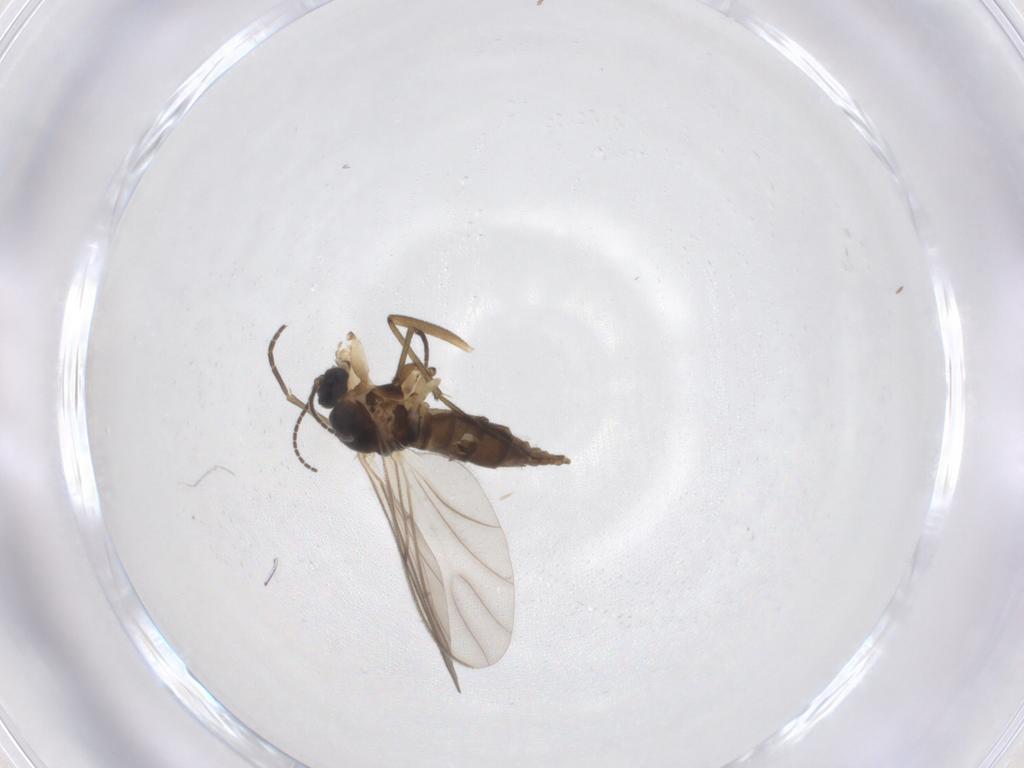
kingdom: Animalia
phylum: Arthropoda
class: Insecta
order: Diptera
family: Sciaridae
